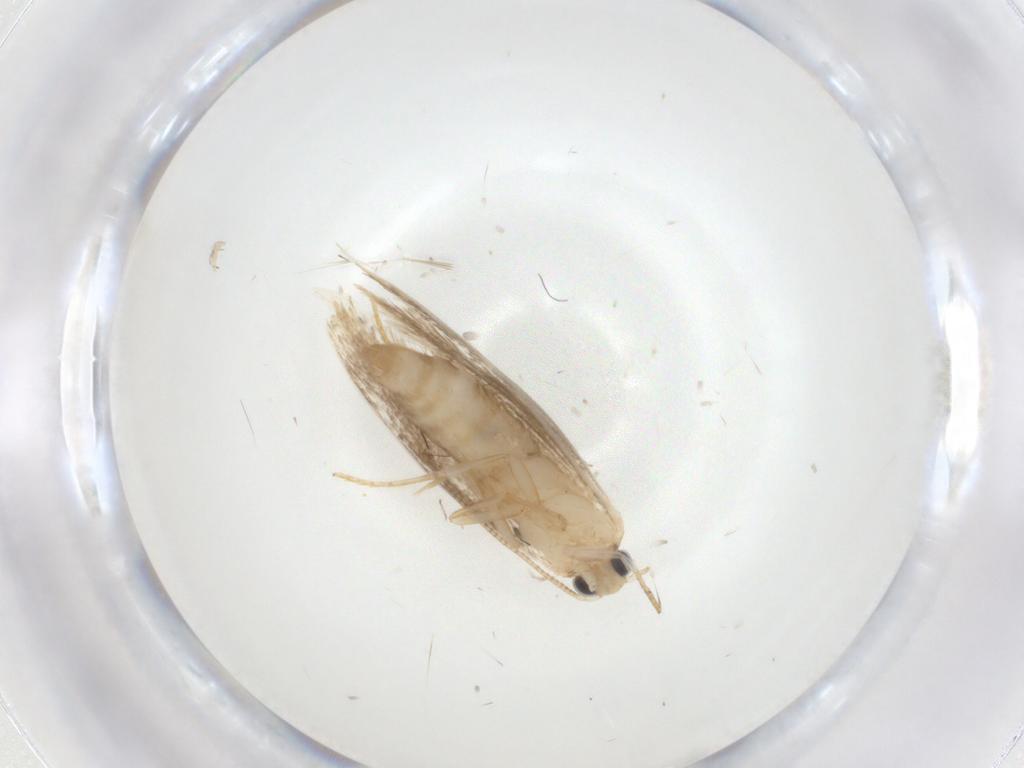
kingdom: Animalia
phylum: Arthropoda
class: Insecta
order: Lepidoptera
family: Tineidae
